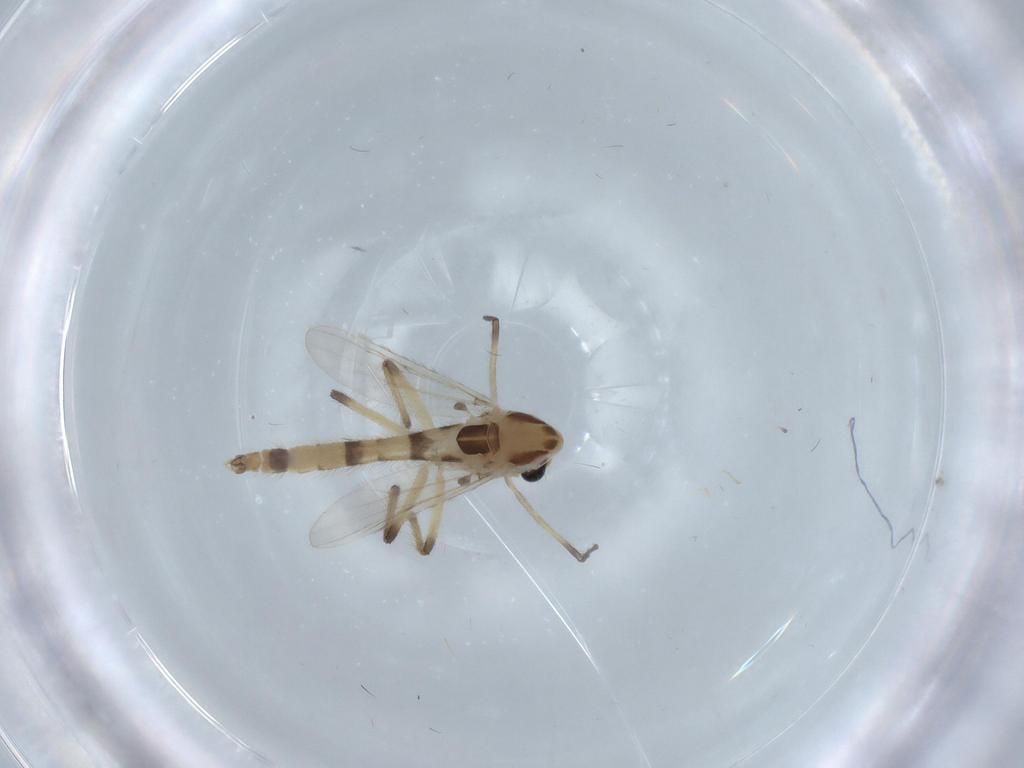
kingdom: Animalia
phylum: Arthropoda
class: Insecta
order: Diptera
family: Chironomidae
